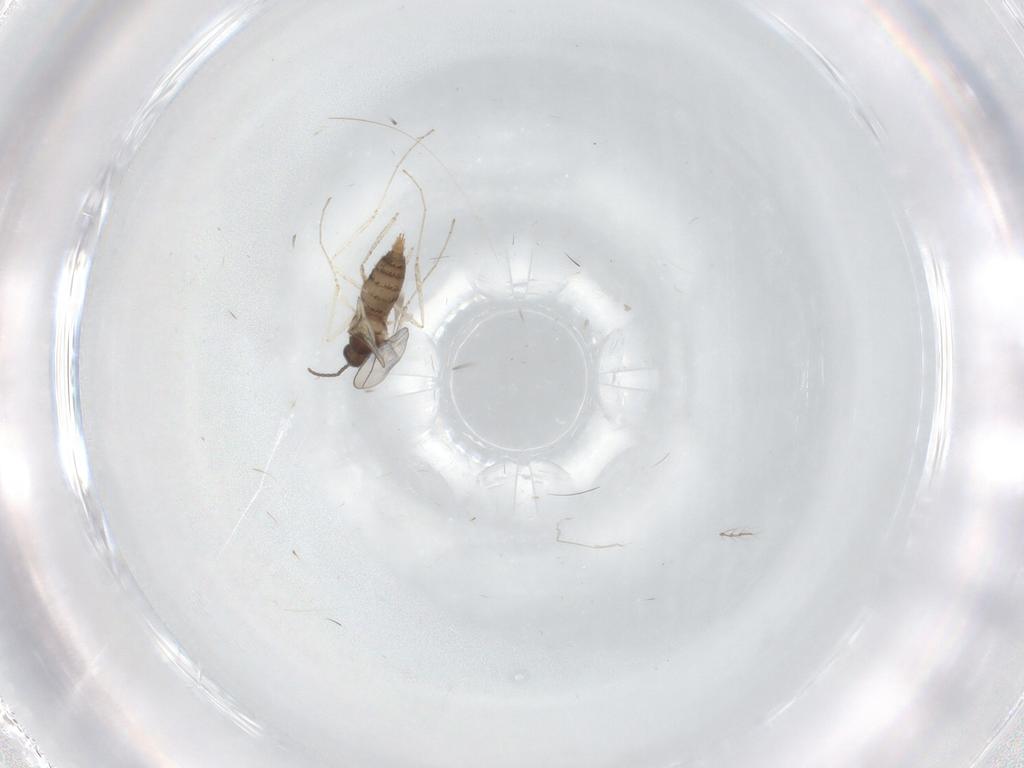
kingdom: Animalia
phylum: Arthropoda
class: Insecta
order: Diptera
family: Cecidomyiidae
